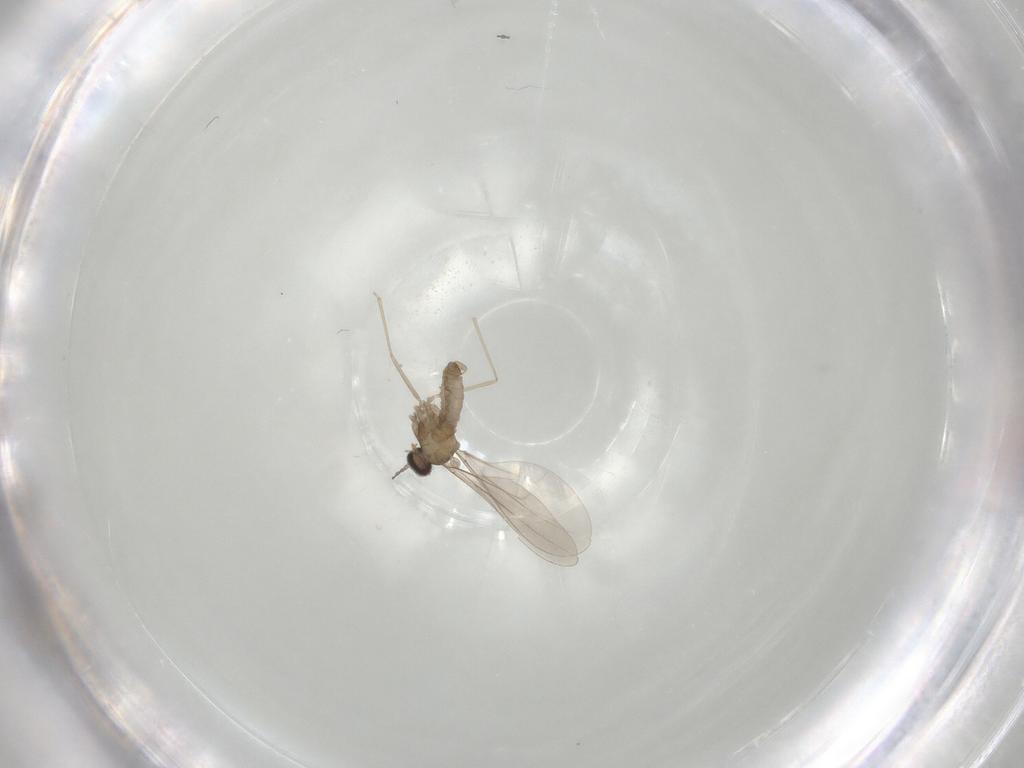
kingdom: Animalia
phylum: Arthropoda
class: Insecta
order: Diptera
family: Cecidomyiidae
